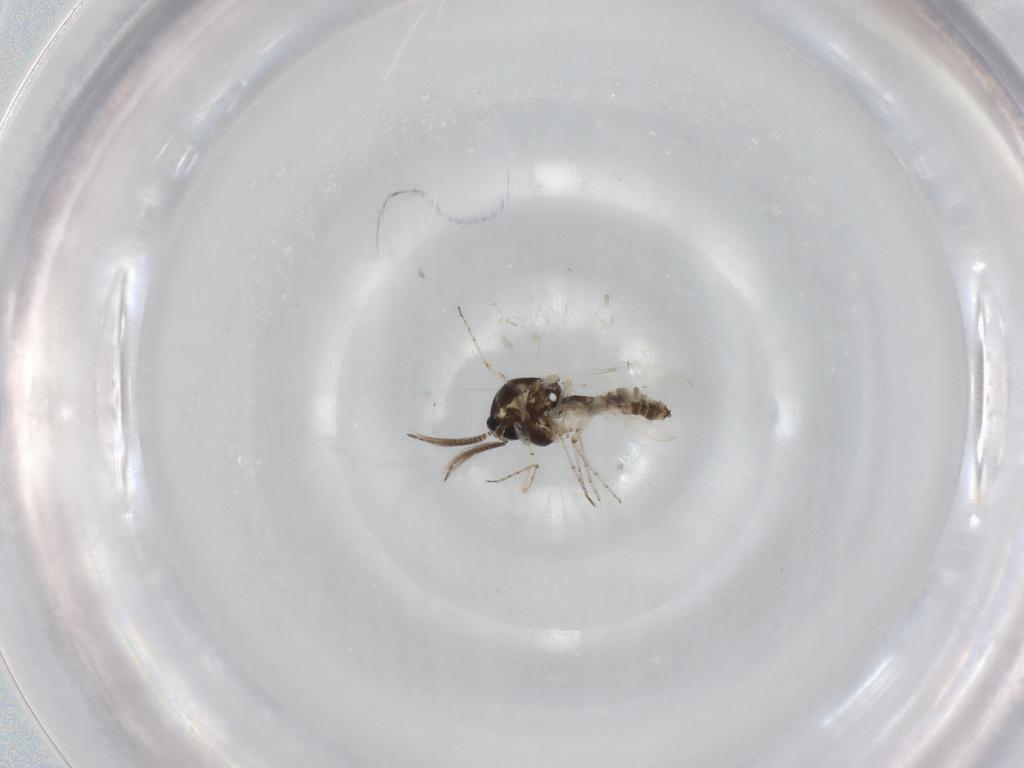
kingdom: Animalia
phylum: Arthropoda
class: Insecta
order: Diptera
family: Ceratopogonidae
